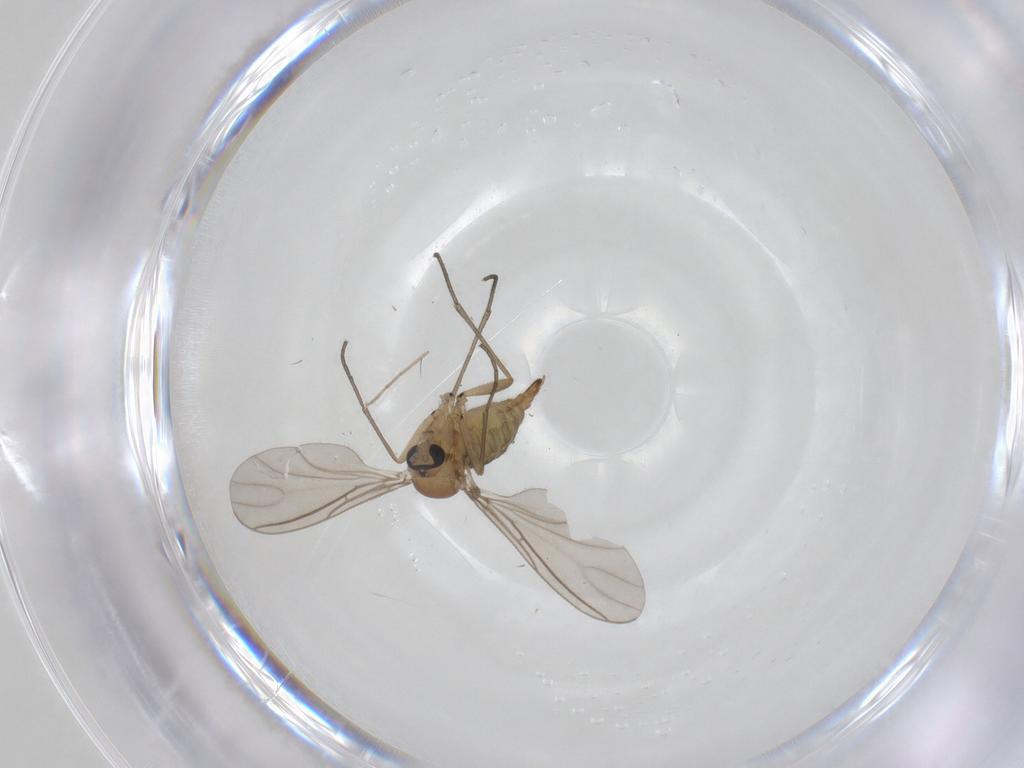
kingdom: Animalia
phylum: Arthropoda
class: Insecta
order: Diptera
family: Sciaridae
